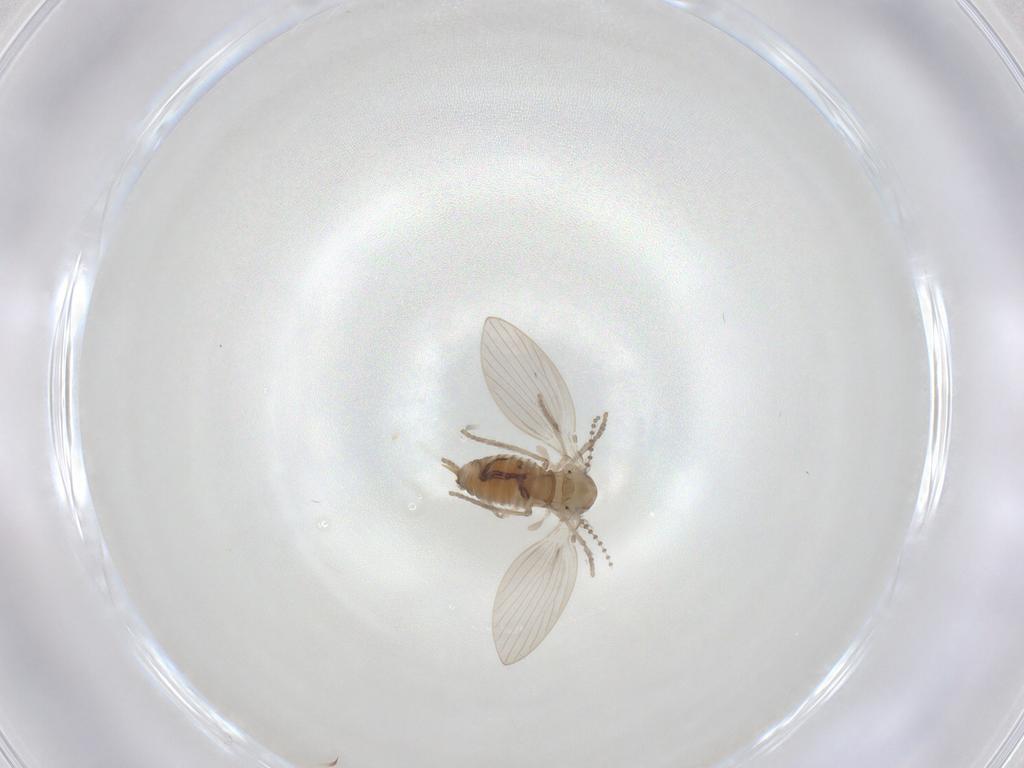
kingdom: Animalia
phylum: Arthropoda
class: Insecta
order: Diptera
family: Psychodidae
